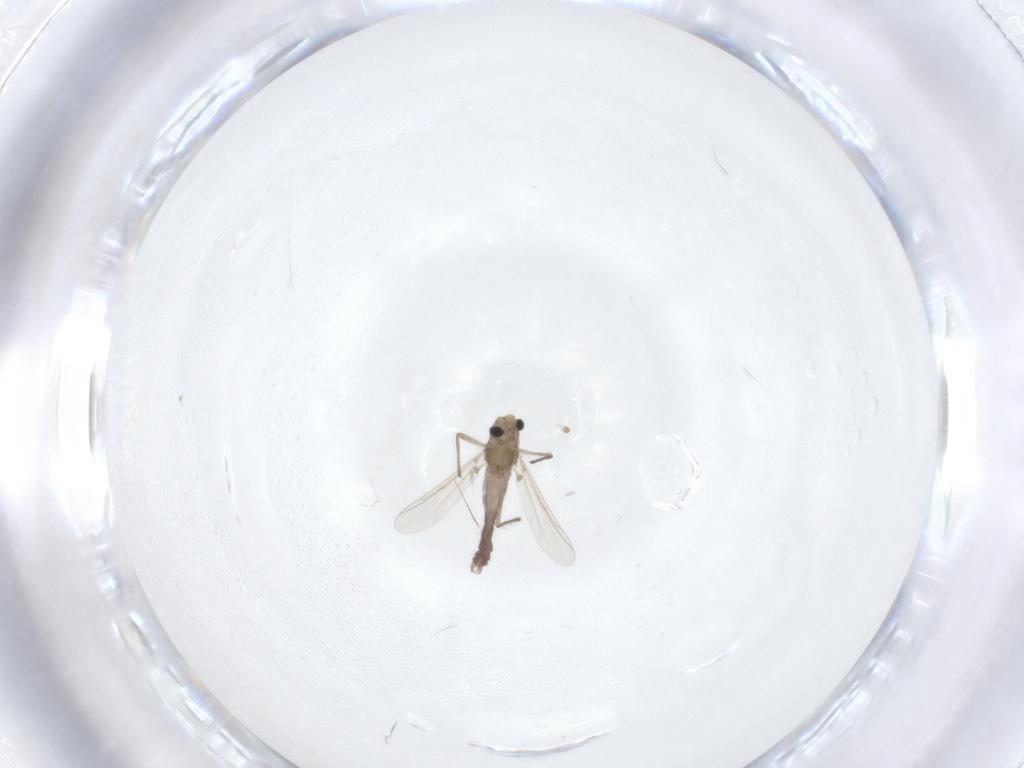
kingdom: Animalia
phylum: Arthropoda
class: Insecta
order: Diptera
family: Chironomidae
